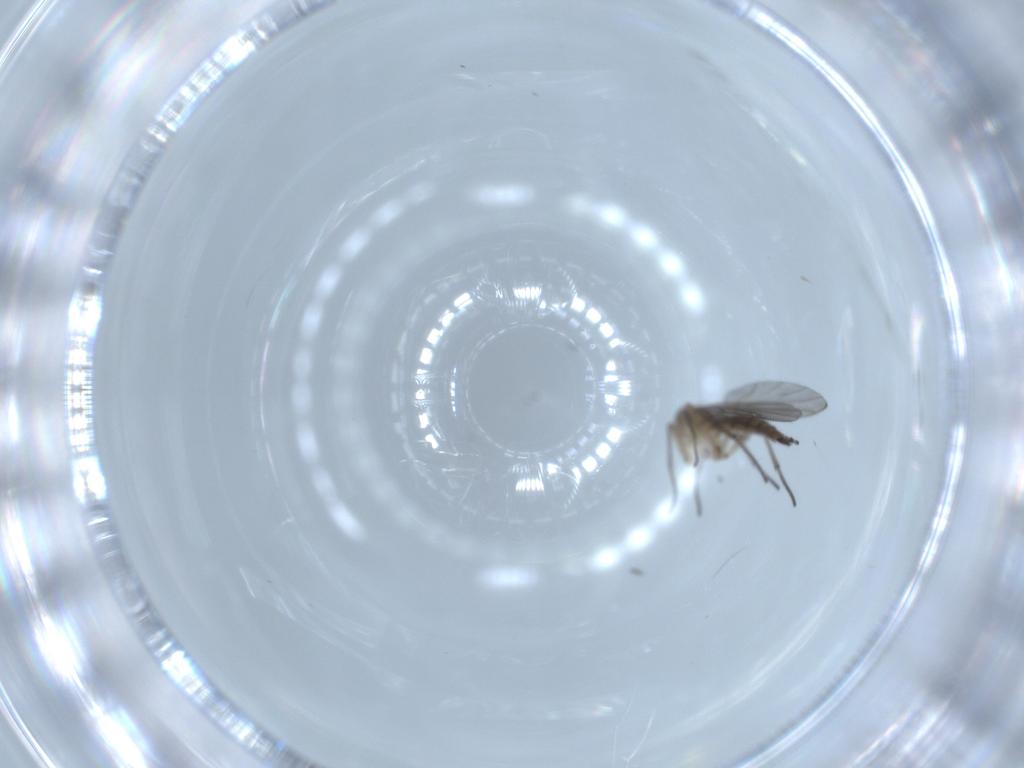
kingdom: Animalia
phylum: Arthropoda
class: Insecta
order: Diptera
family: Sciaridae
